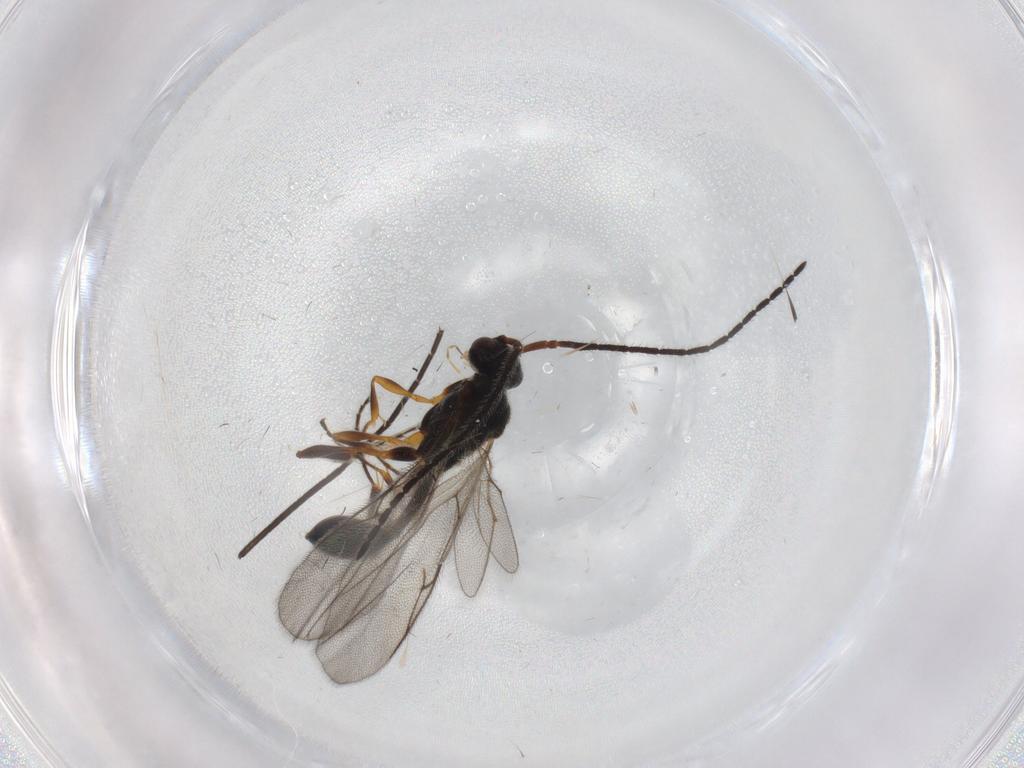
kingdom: Animalia
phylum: Arthropoda
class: Insecta
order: Hymenoptera
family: Diapriidae
